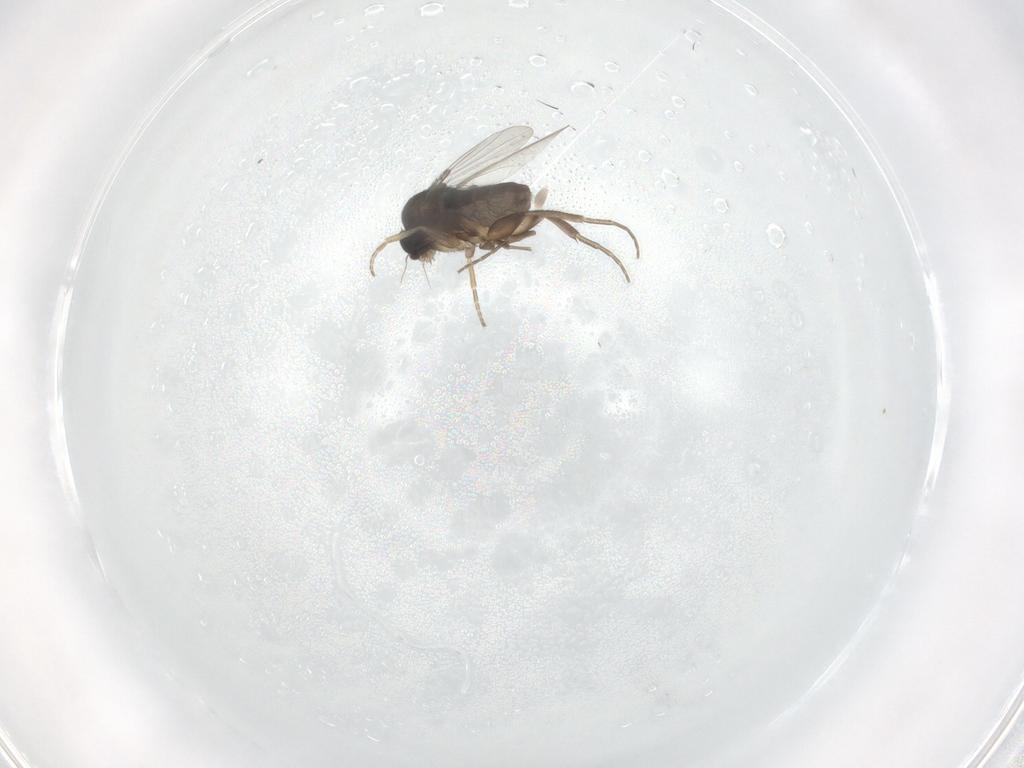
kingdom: Animalia
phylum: Arthropoda
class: Insecta
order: Diptera
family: Phoridae
